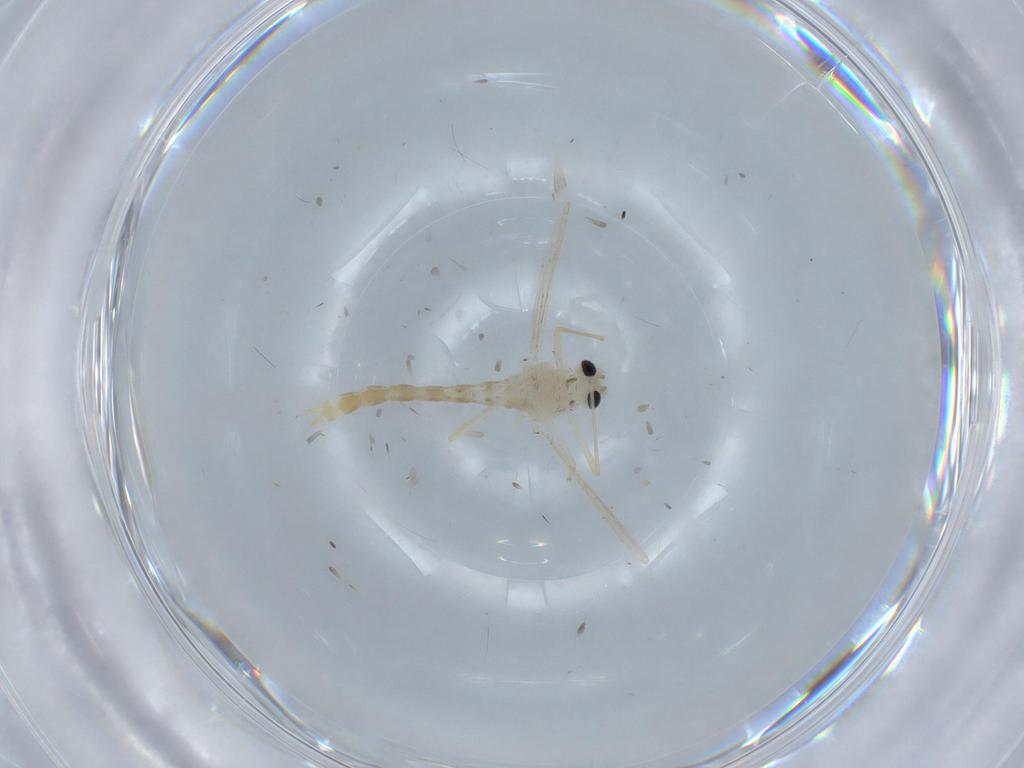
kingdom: Animalia
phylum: Arthropoda
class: Insecta
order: Diptera
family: Chironomidae
